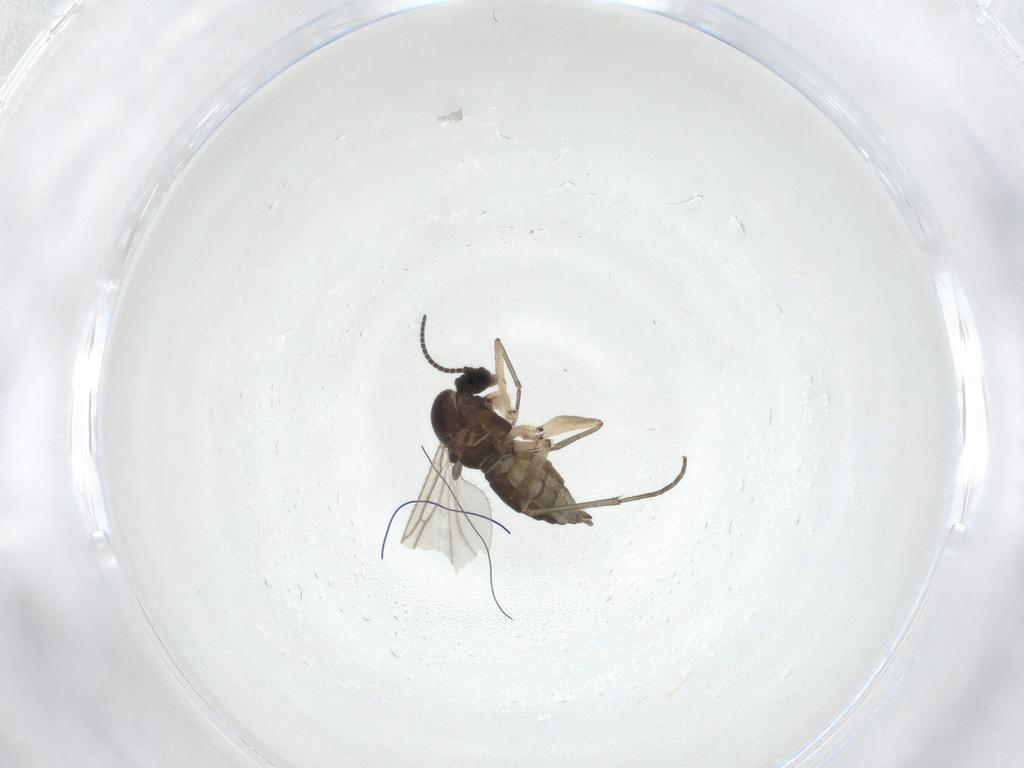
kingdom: Animalia
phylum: Arthropoda
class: Insecta
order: Diptera
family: Sciaridae
